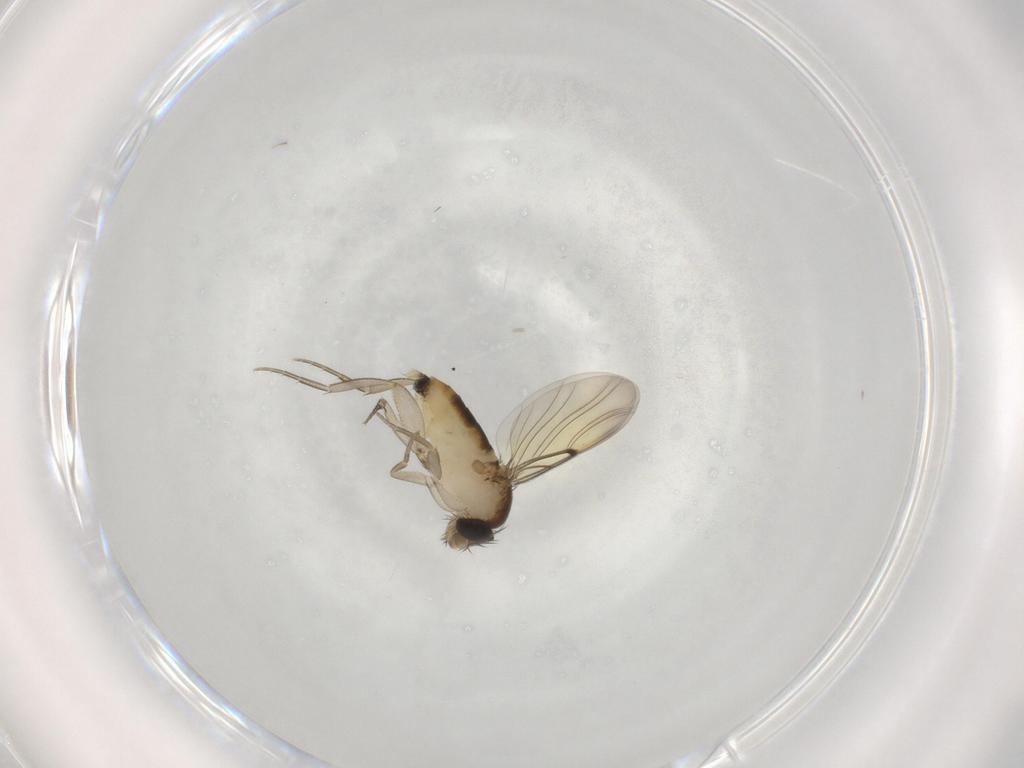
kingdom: Animalia
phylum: Arthropoda
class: Insecta
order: Diptera
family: Phoridae
